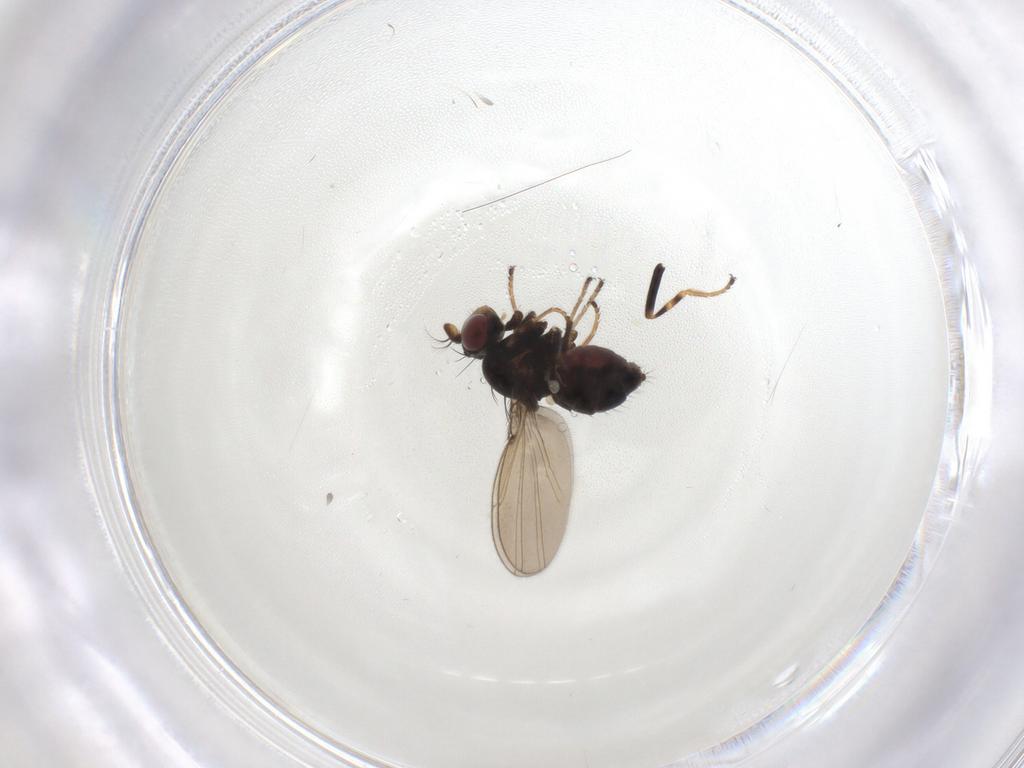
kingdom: Animalia
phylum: Arthropoda
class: Insecta
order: Diptera
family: Ephydridae
